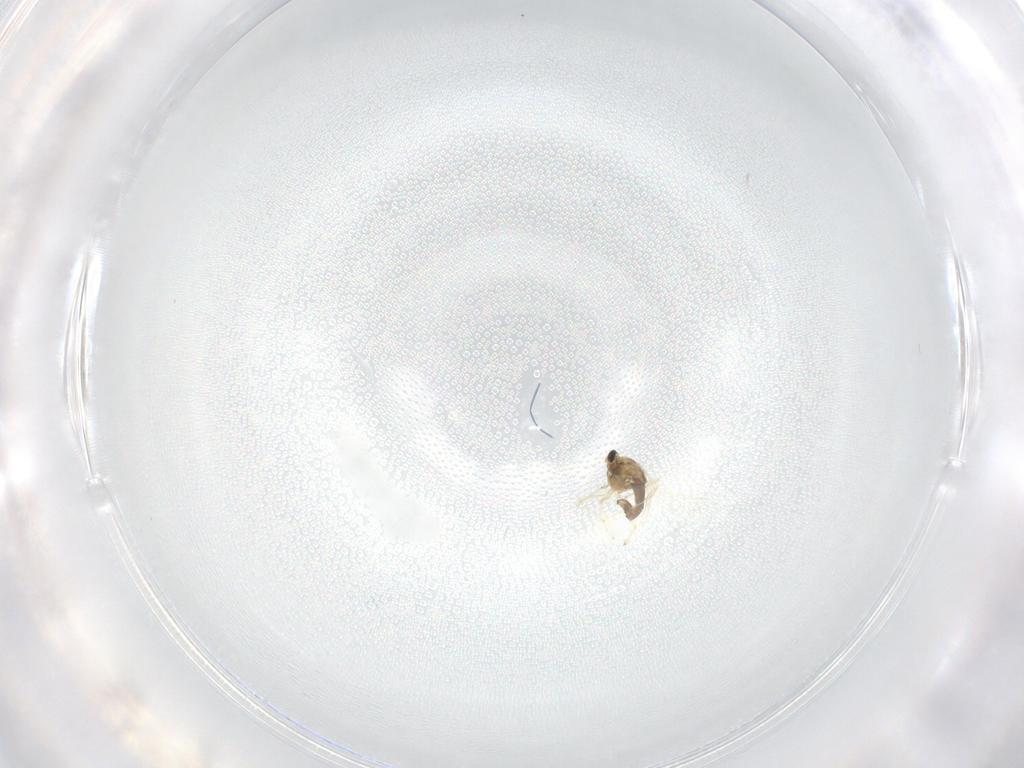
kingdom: Animalia
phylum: Arthropoda
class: Insecta
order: Diptera
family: Chironomidae
